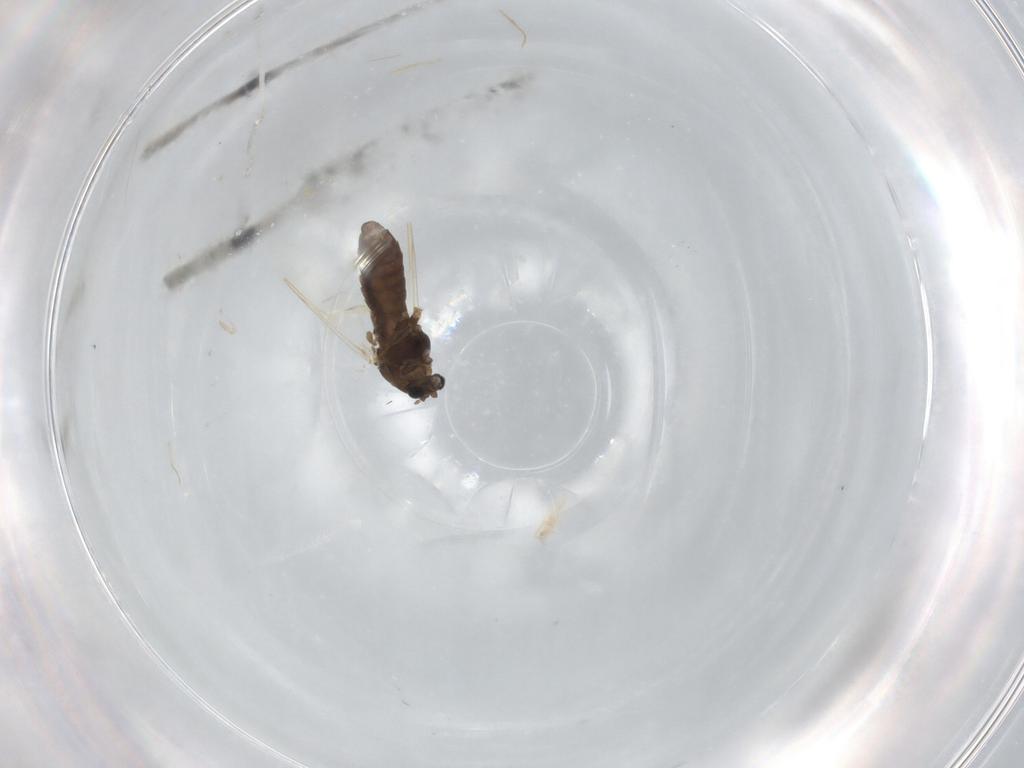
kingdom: Animalia
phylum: Arthropoda
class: Insecta
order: Diptera
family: Chironomidae
